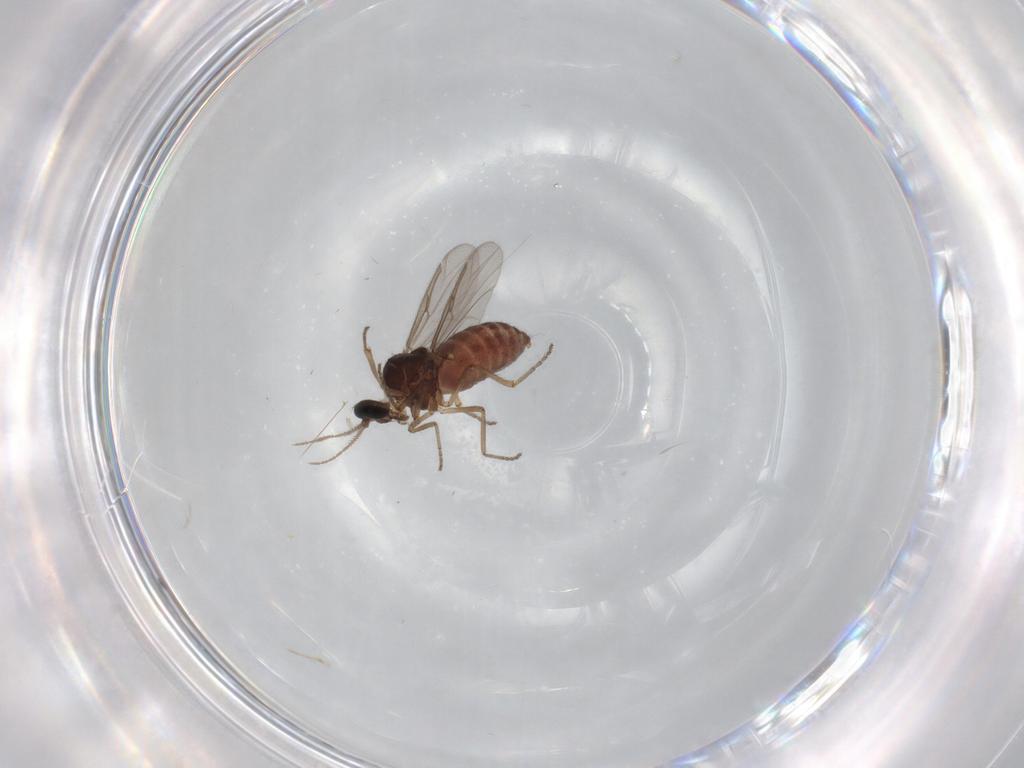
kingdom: Animalia
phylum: Arthropoda
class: Insecta
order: Diptera
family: Ceratopogonidae
